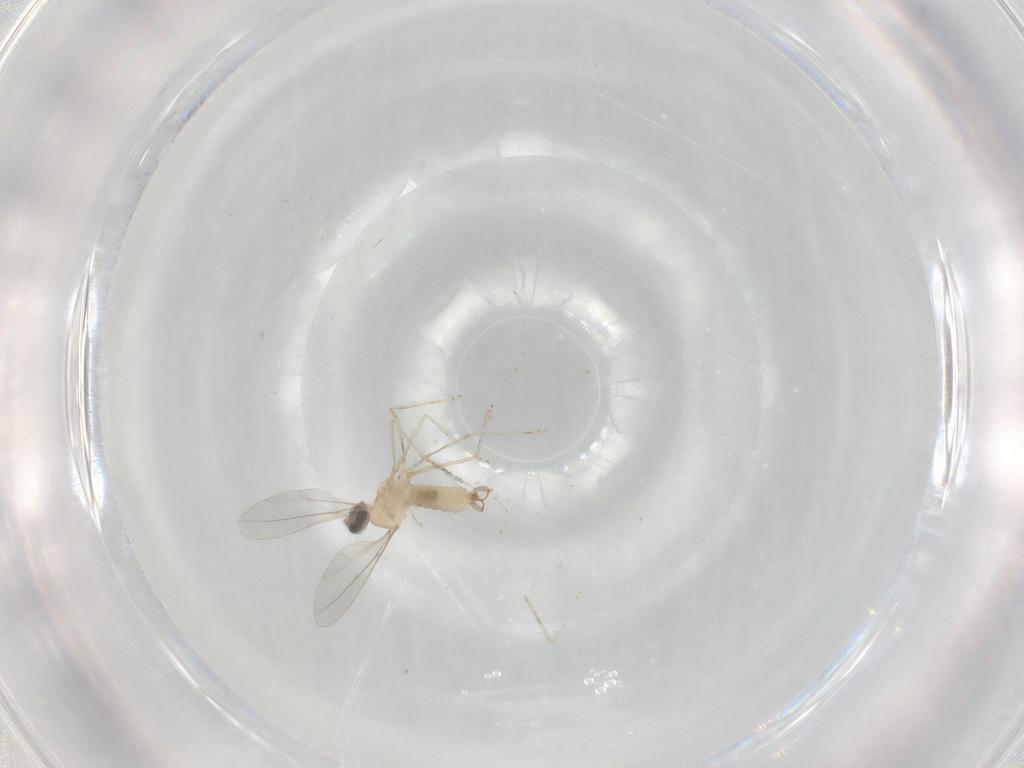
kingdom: Animalia
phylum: Arthropoda
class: Insecta
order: Diptera
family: Cecidomyiidae
